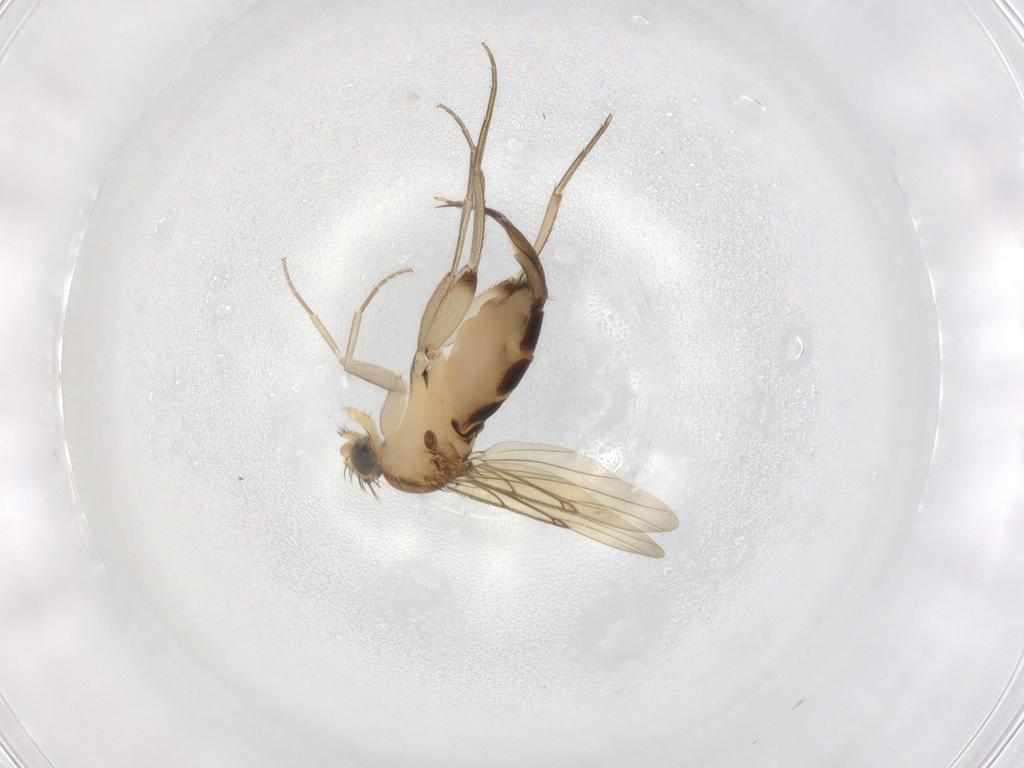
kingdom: Animalia
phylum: Arthropoda
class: Insecta
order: Diptera
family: Phoridae
